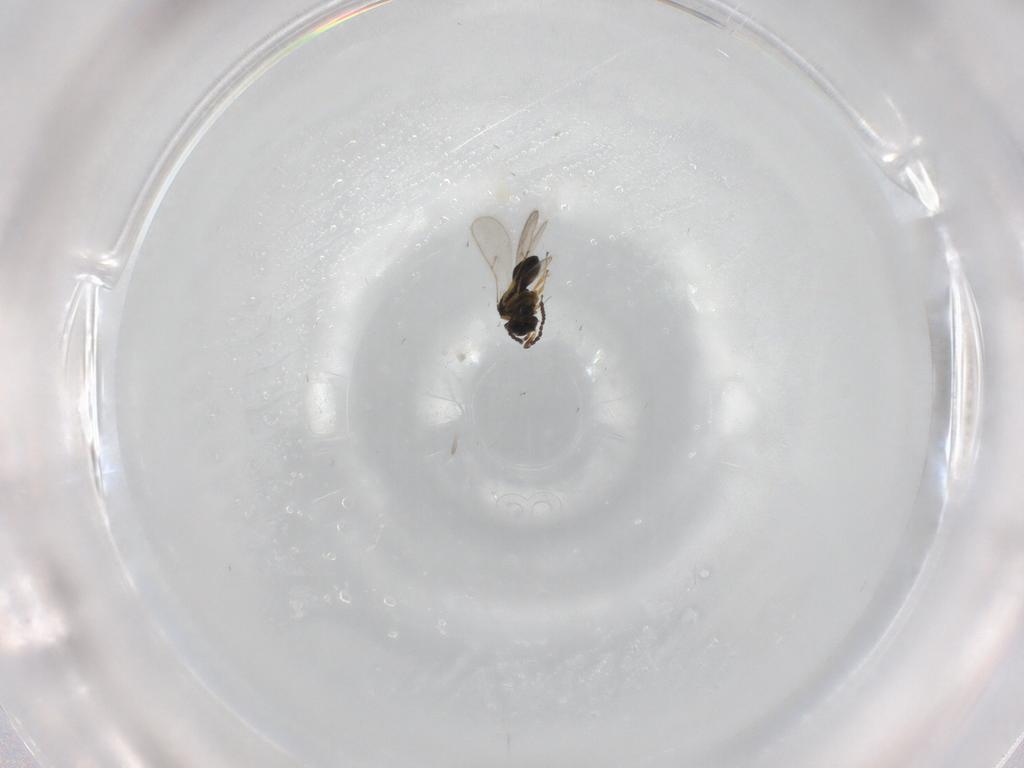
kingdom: Animalia
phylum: Arthropoda
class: Insecta
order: Hymenoptera
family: Scelionidae
